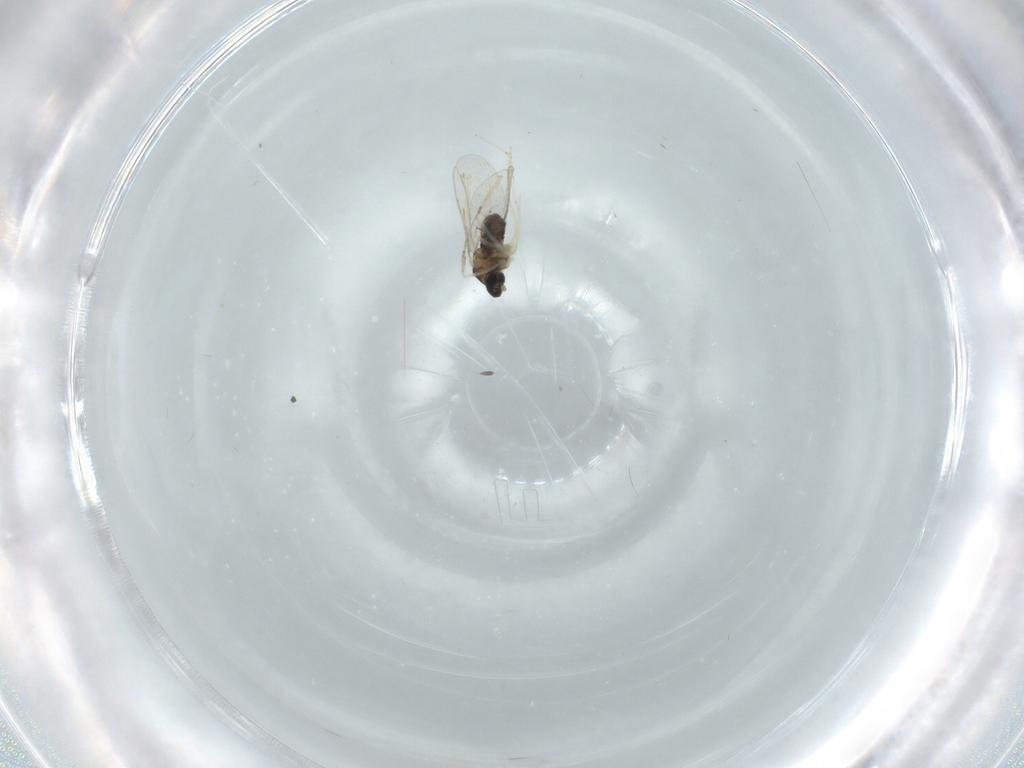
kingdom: Animalia
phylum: Arthropoda
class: Insecta
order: Diptera
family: Cecidomyiidae
